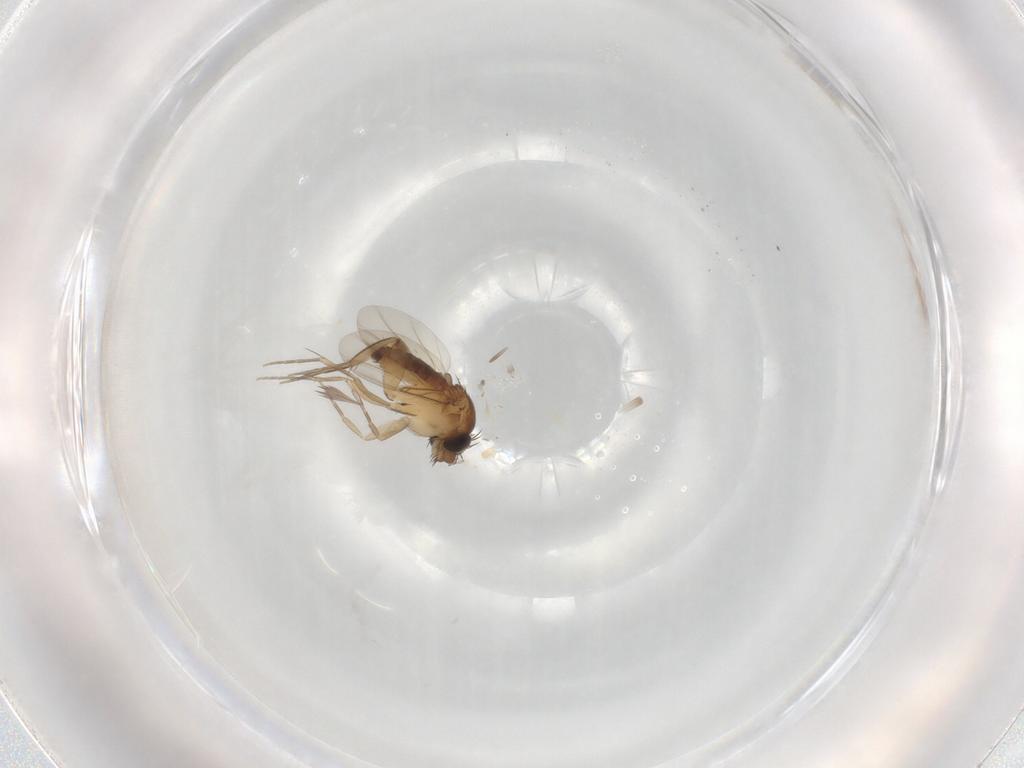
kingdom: Animalia
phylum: Arthropoda
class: Insecta
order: Diptera
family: Phoridae
